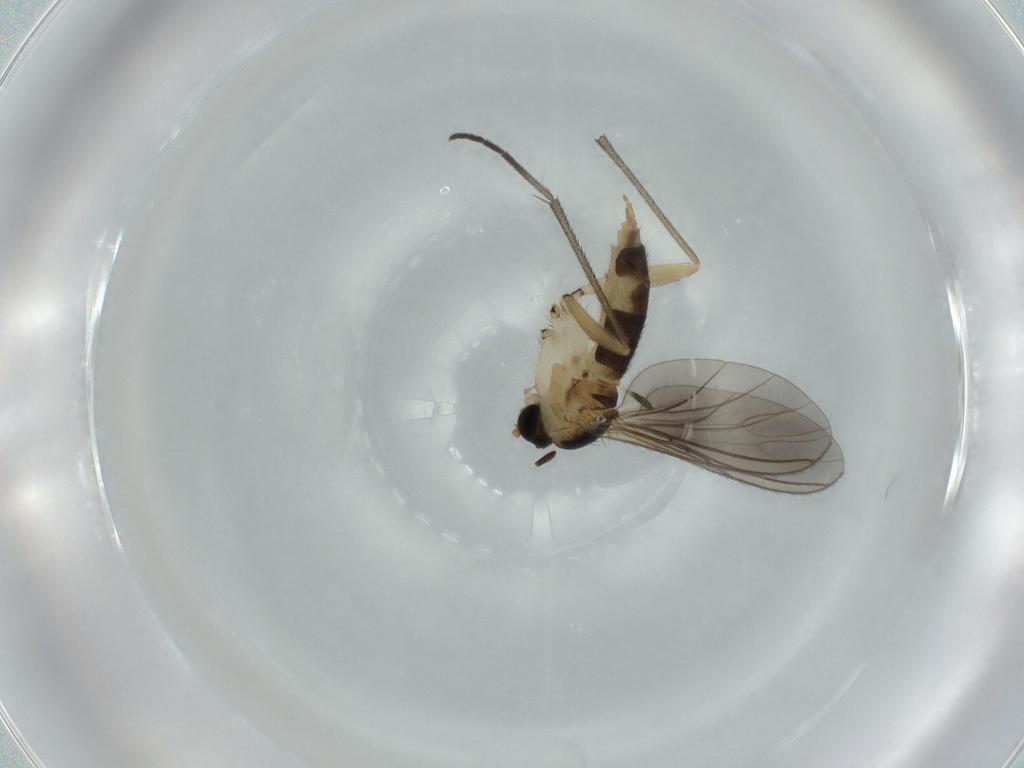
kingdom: Animalia
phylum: Arthropoda
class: Insecta
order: Diptera
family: Sciaridae
